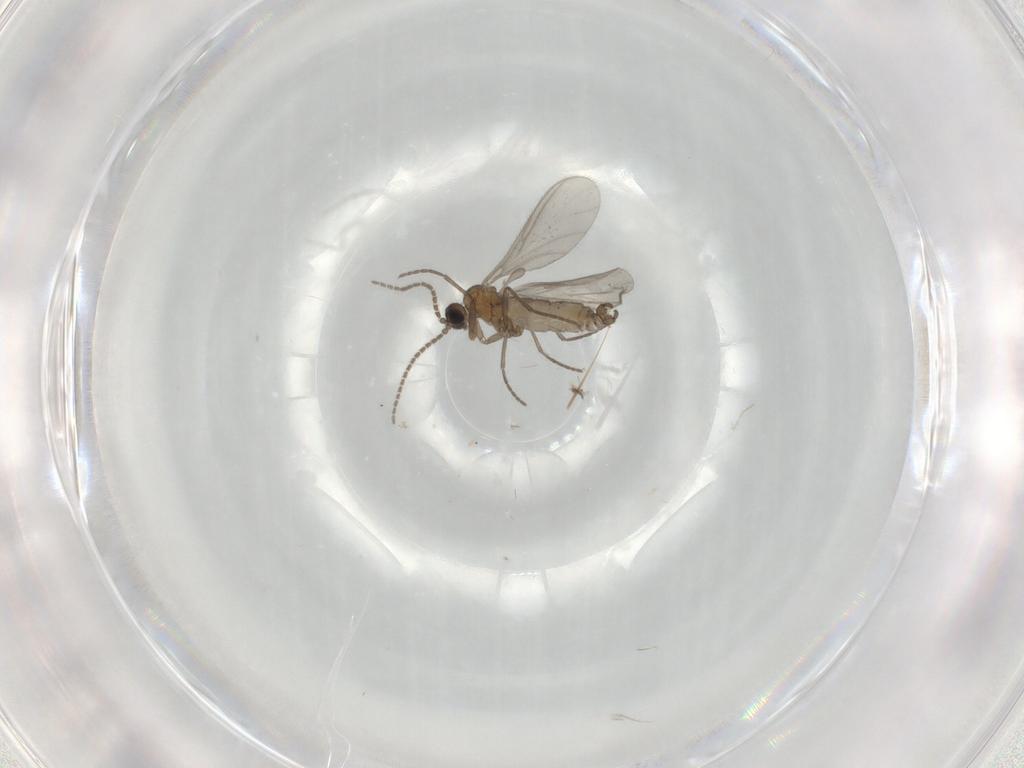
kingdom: Animalia
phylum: Arthropoda
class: Insecta
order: Diptera
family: Sciaridae
